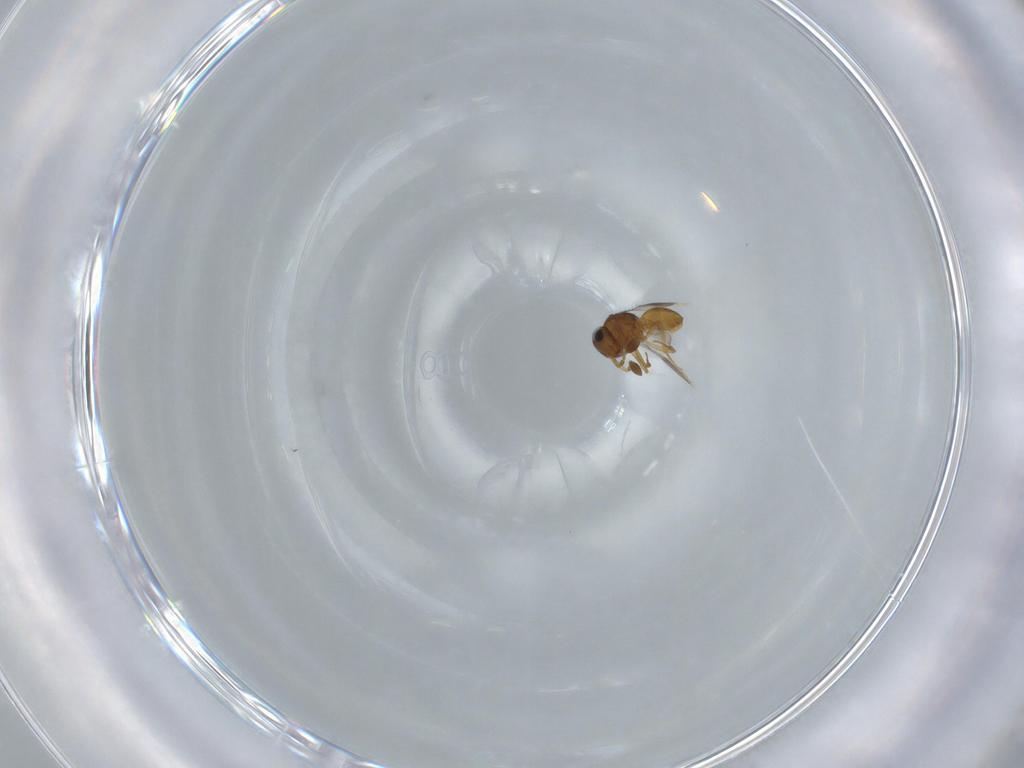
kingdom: Animalia
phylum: Arthropoda
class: Insecta
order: Hymenoptera
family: Scelionidae
